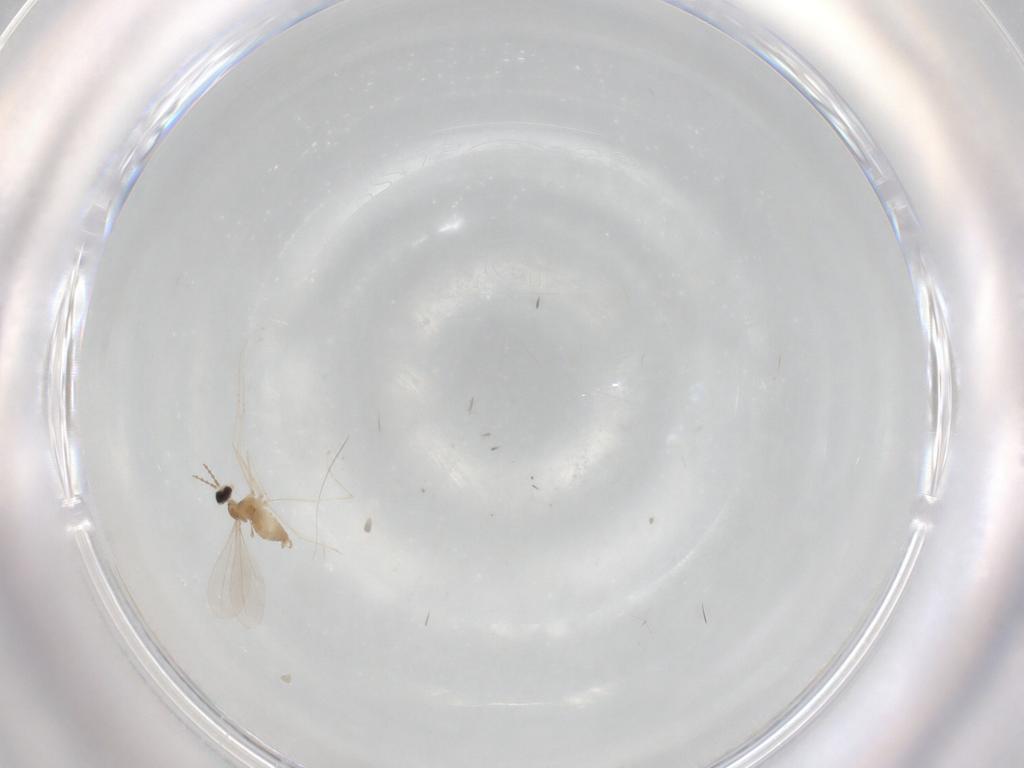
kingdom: Animalia
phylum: Arthropoda
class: Insecta
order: Diptera
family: Cecidomyiidae
